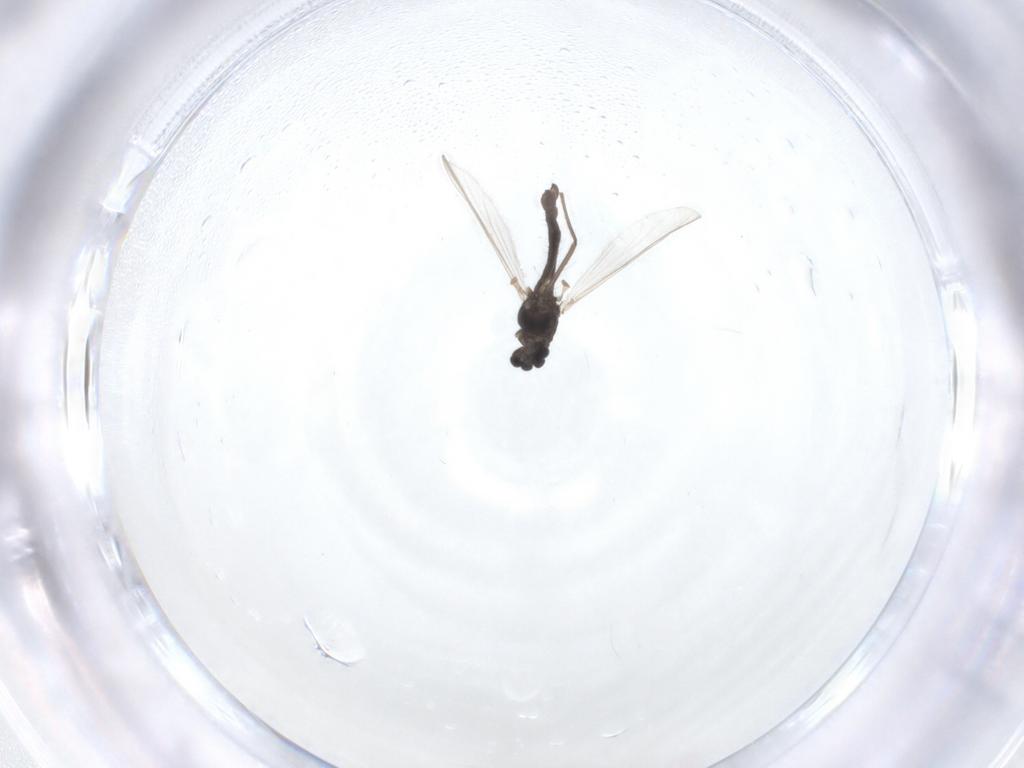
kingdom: Animalia
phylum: Arthropoda
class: Insecta
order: Diptera
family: Chironomidae
